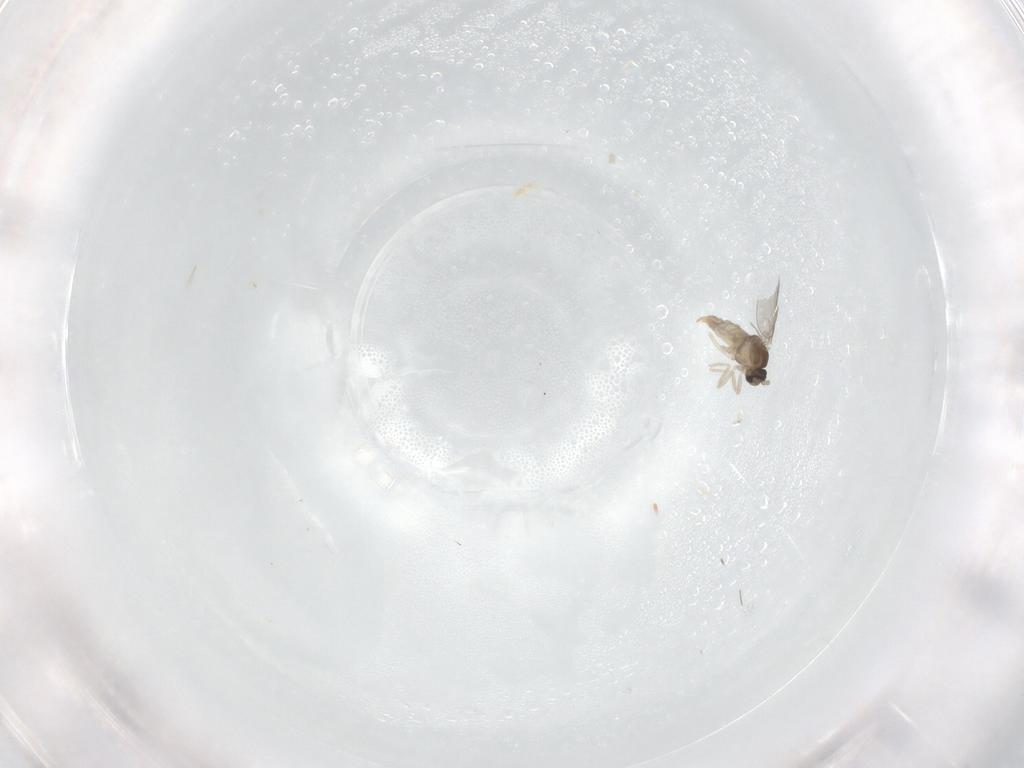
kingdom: Animalia
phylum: Arthropoda
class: Insecta
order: Diptera
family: Cecidomyiidae
